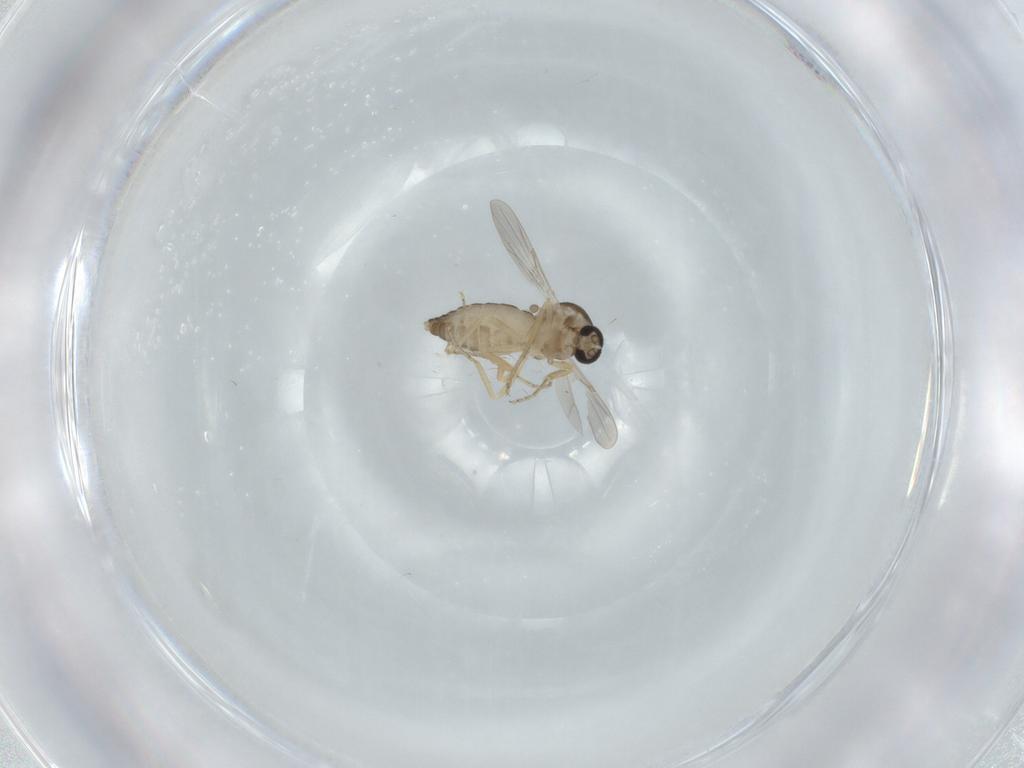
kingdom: Animalia
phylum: Arthropoda
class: Insecta
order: Diptera
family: Ceratopogonidae
